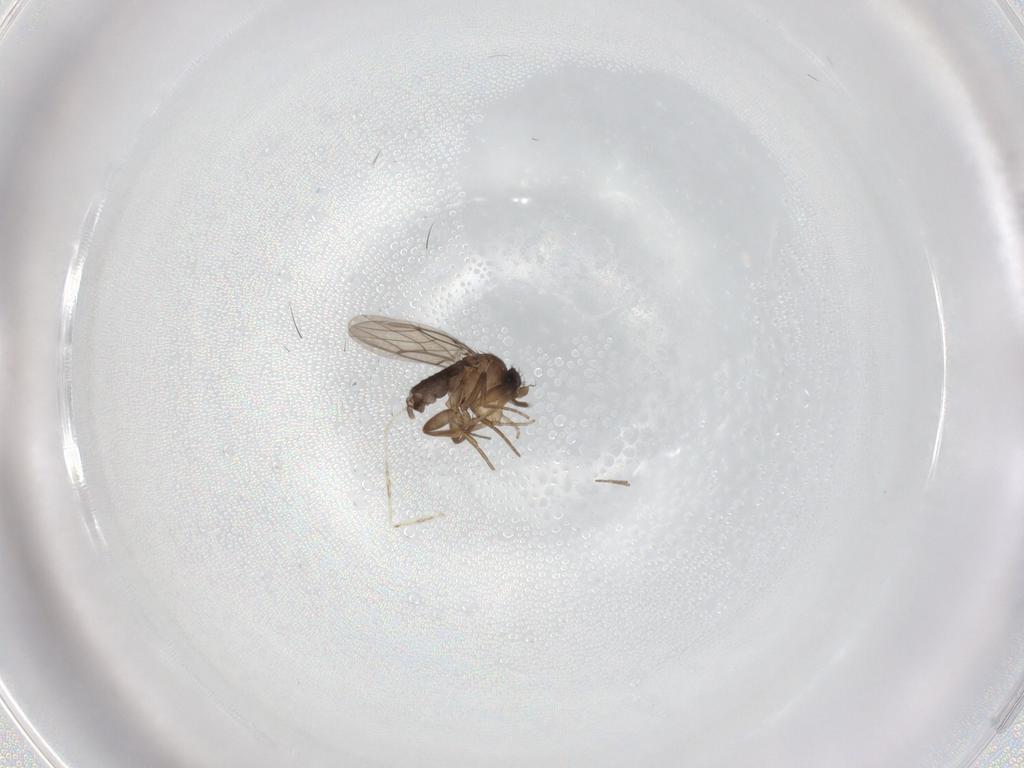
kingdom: Animalia
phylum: Arthropoda
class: Insecta
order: Diptera
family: Cecidomyiidae
